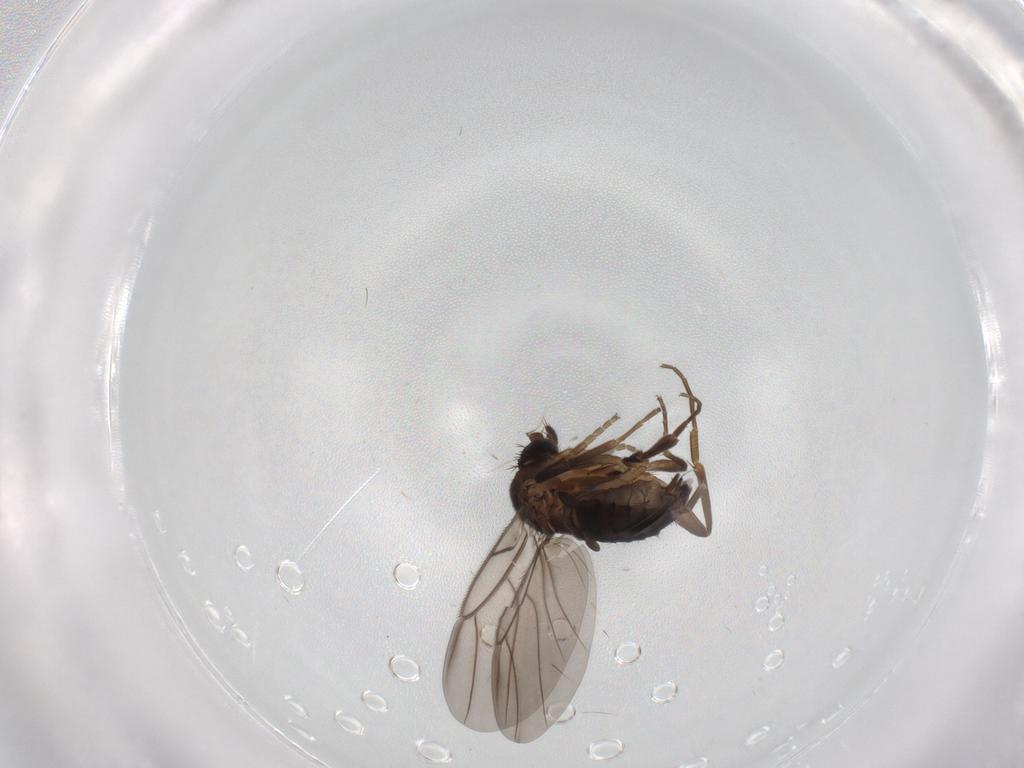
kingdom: Animalia
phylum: Arthropoda
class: Insecta
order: Diptera
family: Phoridae
